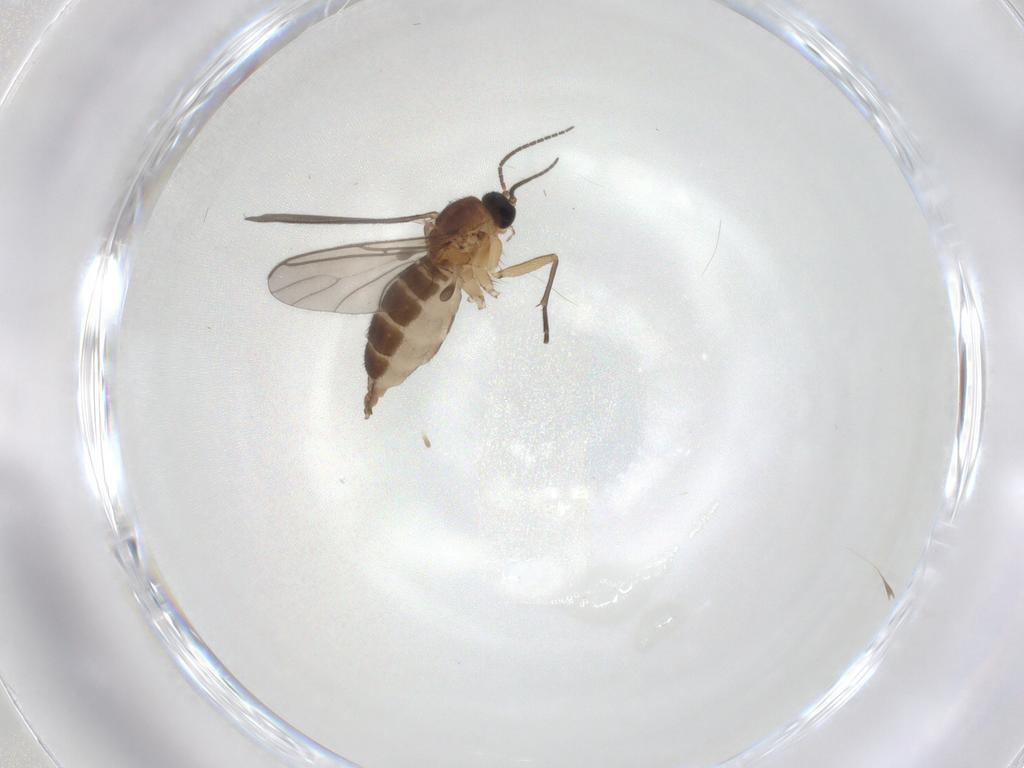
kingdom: Animalia
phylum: Arthropoda
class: Insecta
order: Diptera
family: Sciaridae
